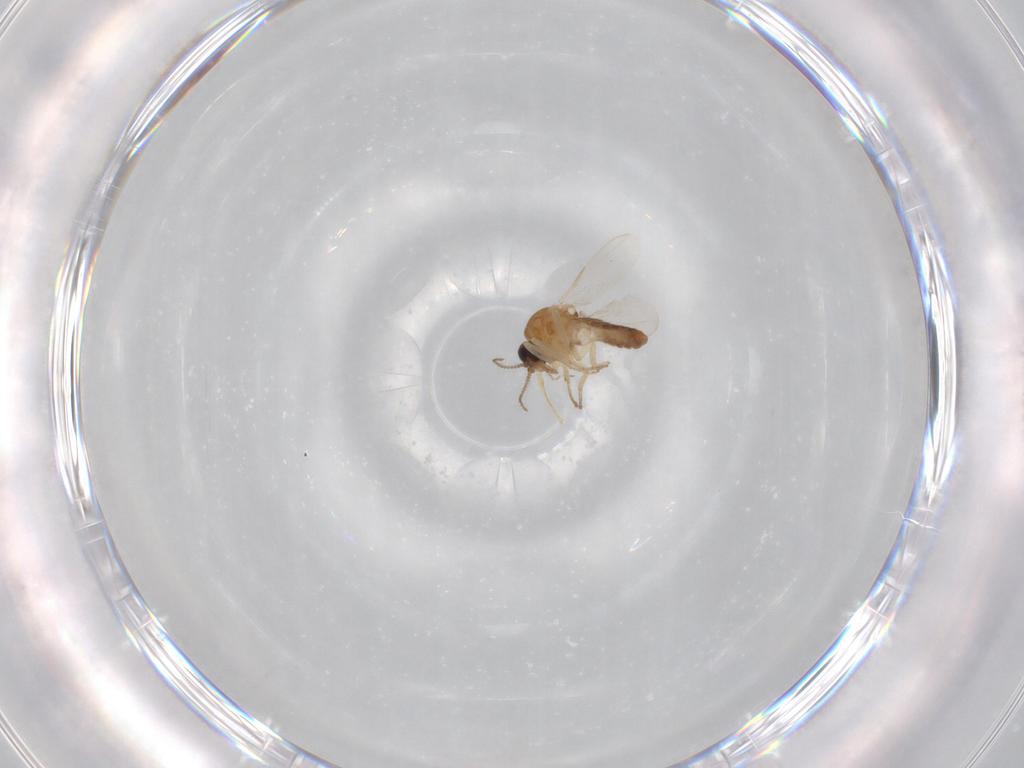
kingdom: Animalia
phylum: Arthropoda
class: Insecta
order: Diptera
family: Ceratopogonidae
